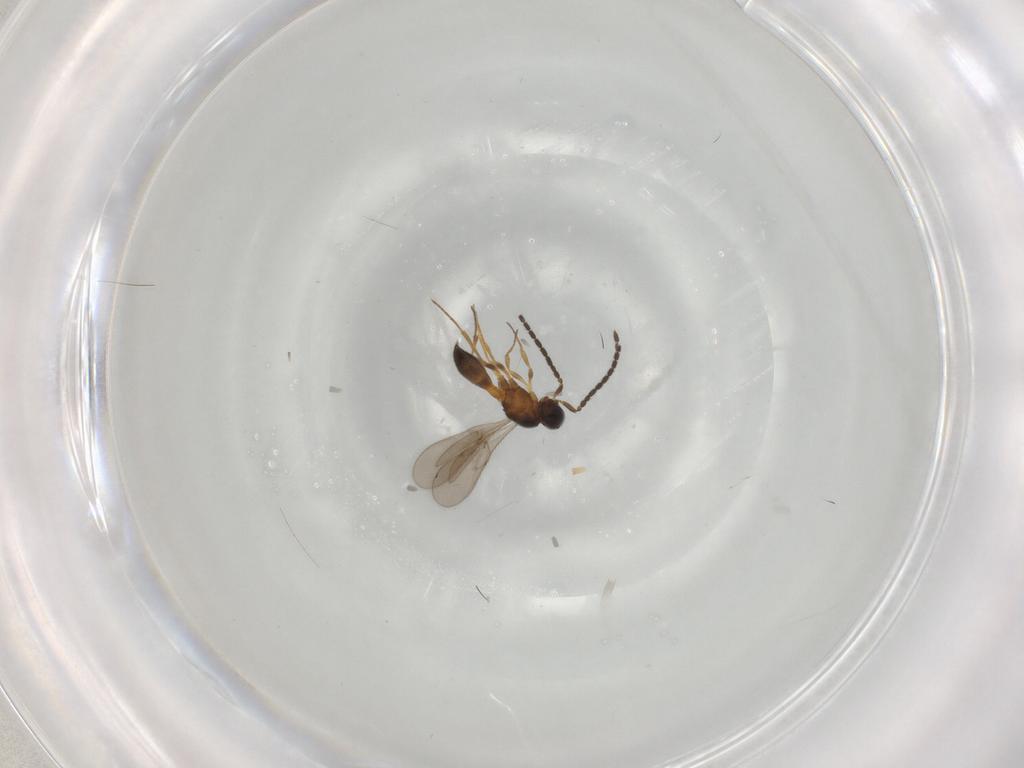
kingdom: Animalia
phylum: Arthropoda
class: Insecta
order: Hymenoptera
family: Scelionidae
